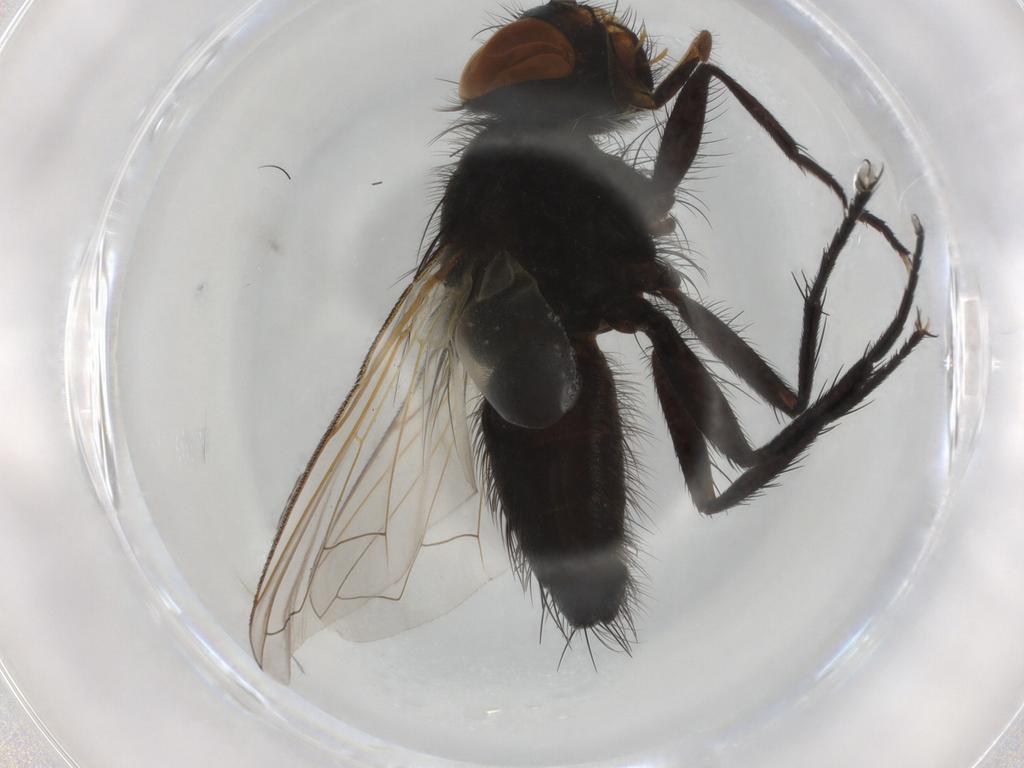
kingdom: Animalia
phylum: Arthropoda
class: Insecta
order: Diptera
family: Tachinidae
